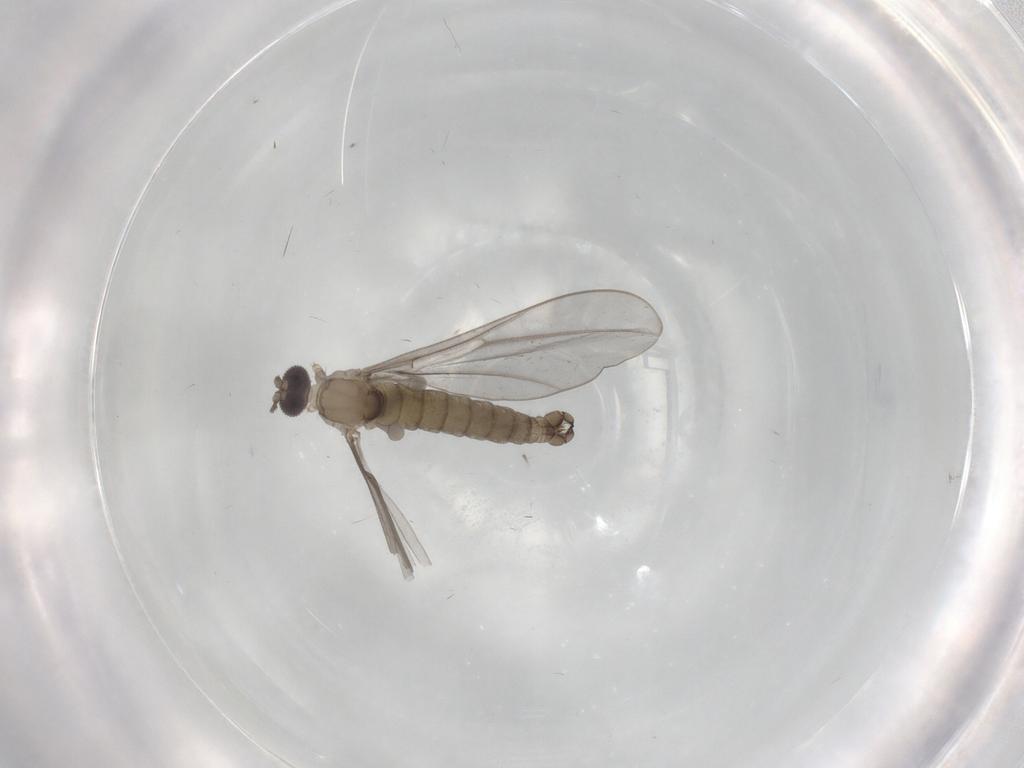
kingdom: Animalia
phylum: Arthropoda
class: Insecta
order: Diptera
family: Cecidomyiidae
